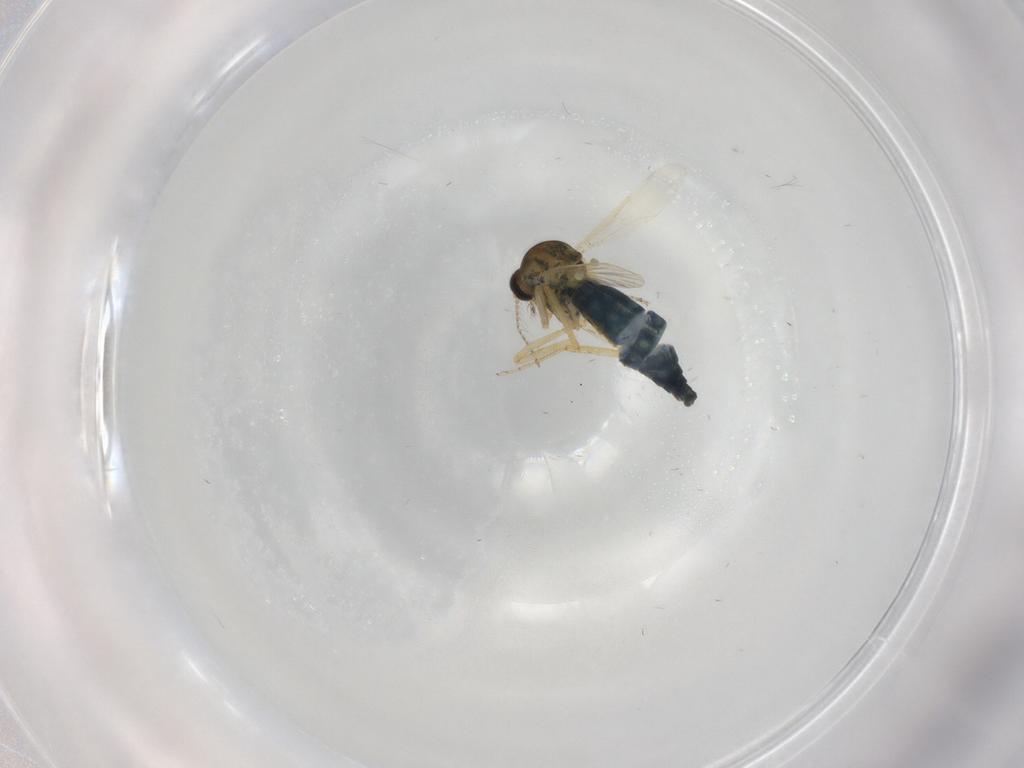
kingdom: Animalia
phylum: Arthropoda
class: Insecta
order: Diptera
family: Ceratopogonidae
